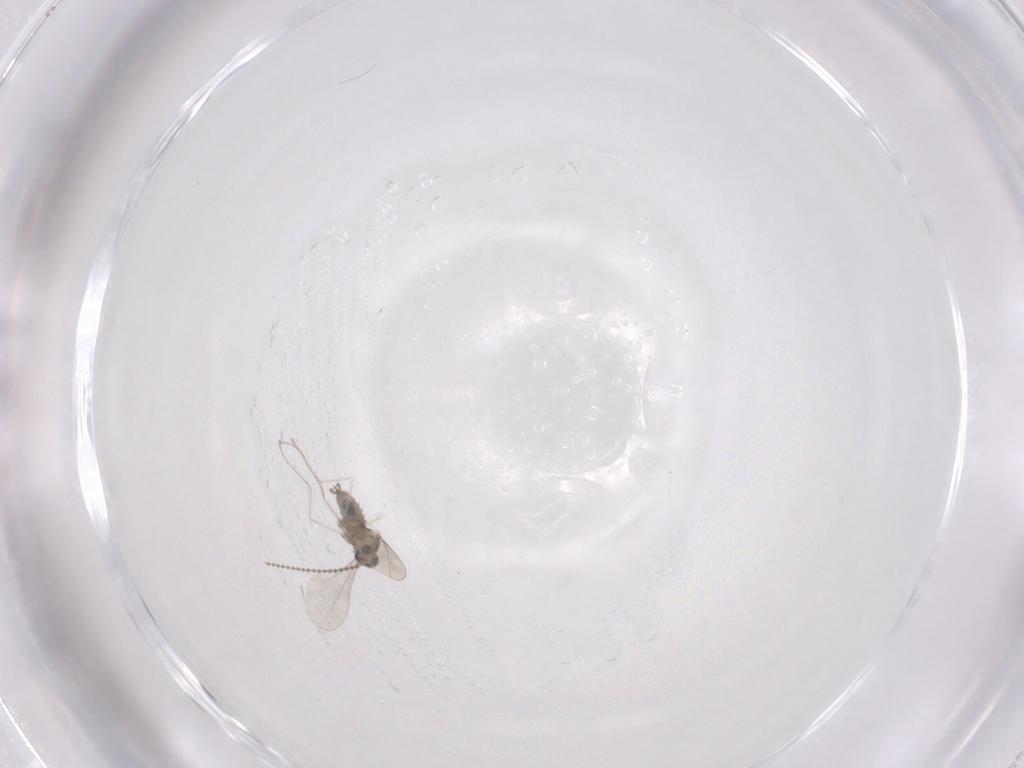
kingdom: Animalia
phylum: Arthropoda
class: Insecta
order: Diptera
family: Cecidomyiidae
